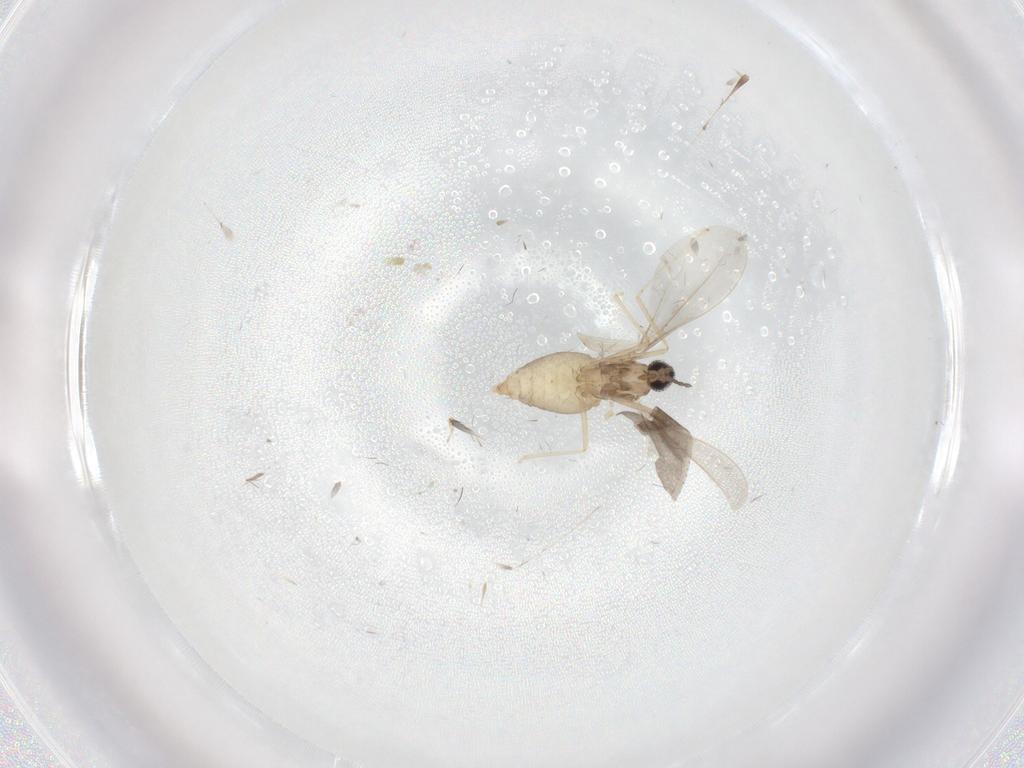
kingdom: Animalia
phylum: Arthropoda
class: Insecta
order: Diptera
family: Cecidomyiidae
